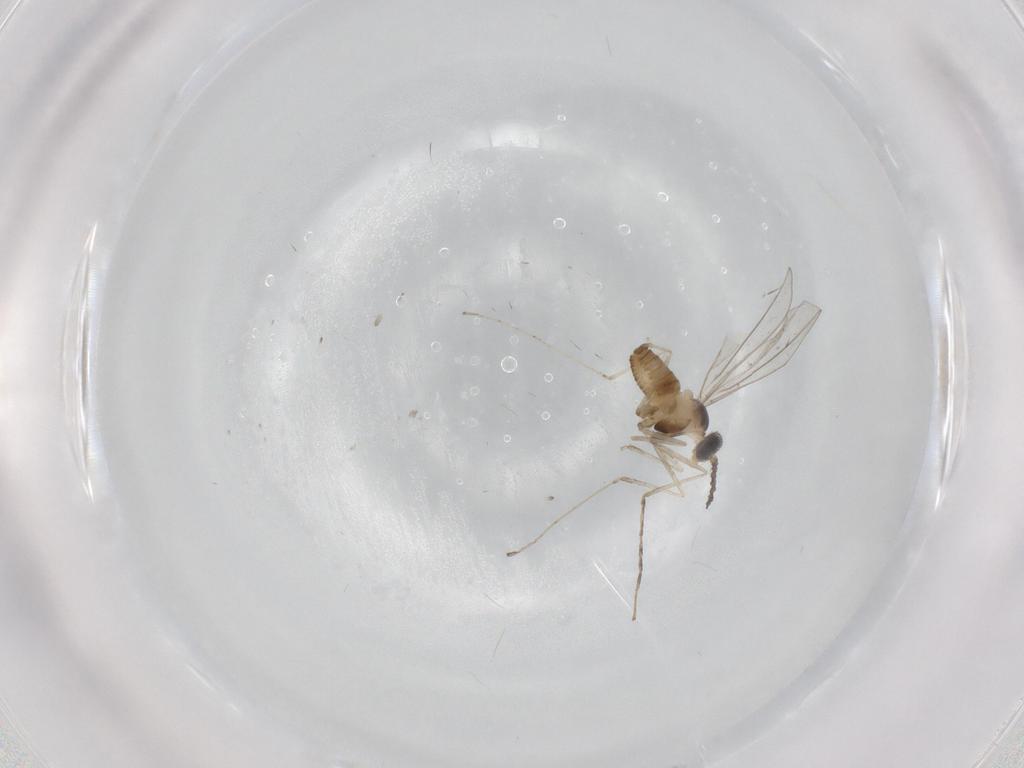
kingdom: Animalia
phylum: Arthropoda
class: Insecta
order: Diptera
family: Cecidomyiidae
